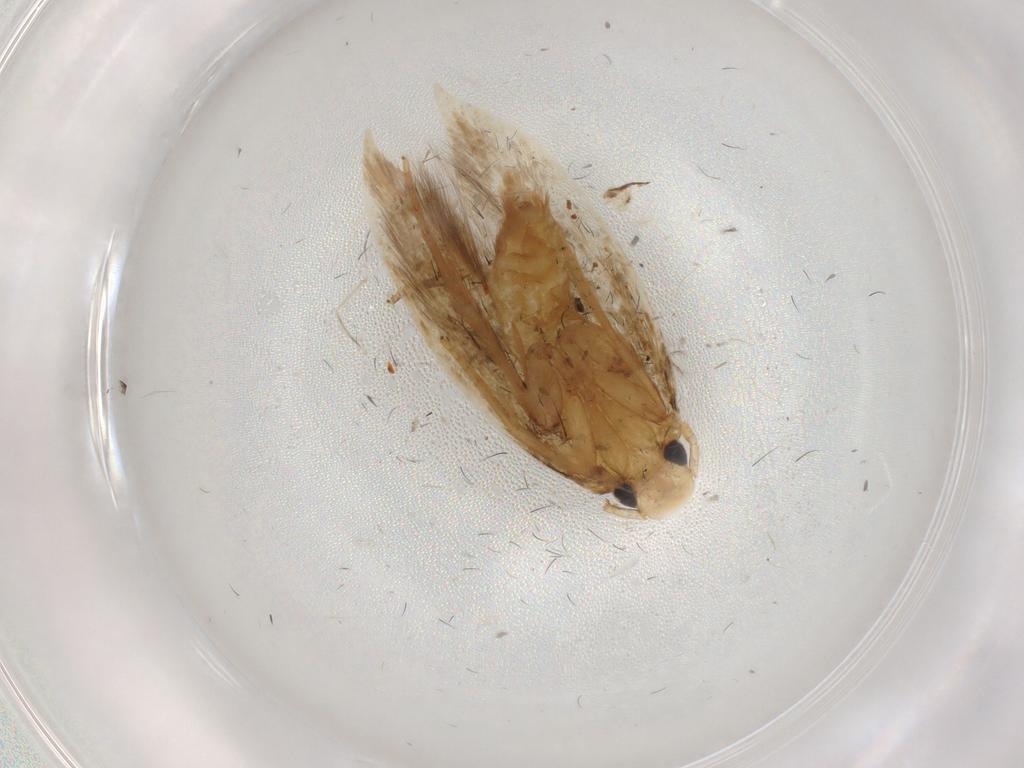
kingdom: Animalia
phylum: Arthropoda
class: Insecta
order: Lepidoptera
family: Tineidae
